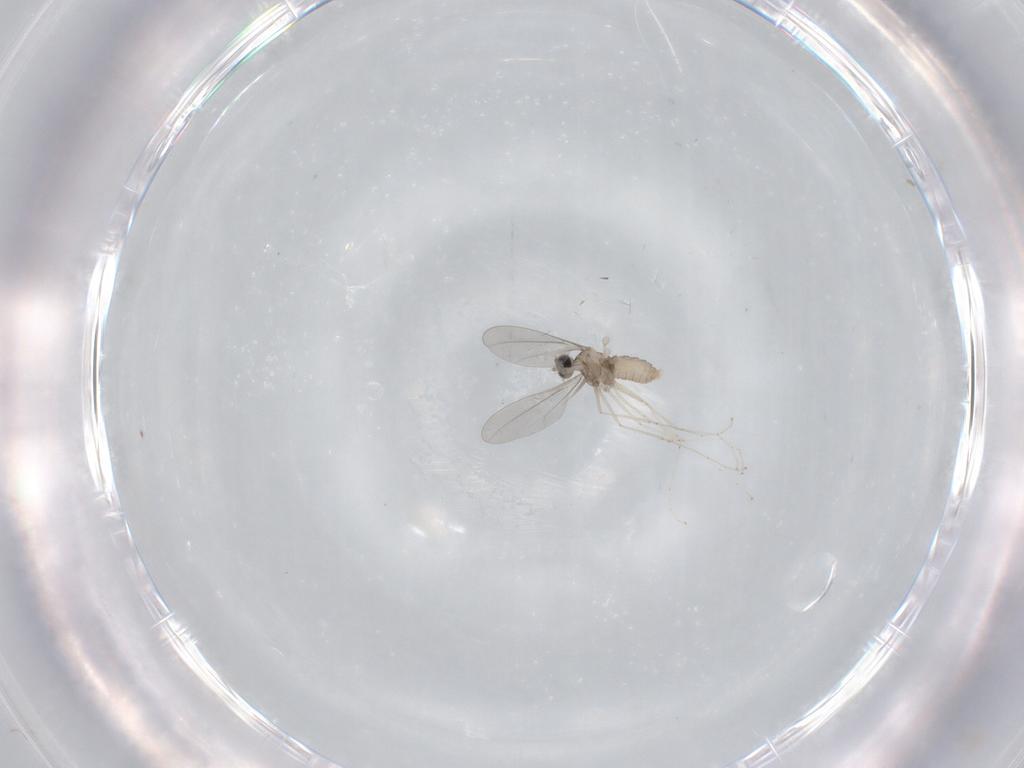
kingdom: Animalia
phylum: Arthropoda
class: Insecta
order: Diptera
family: Cecidomyiidae
